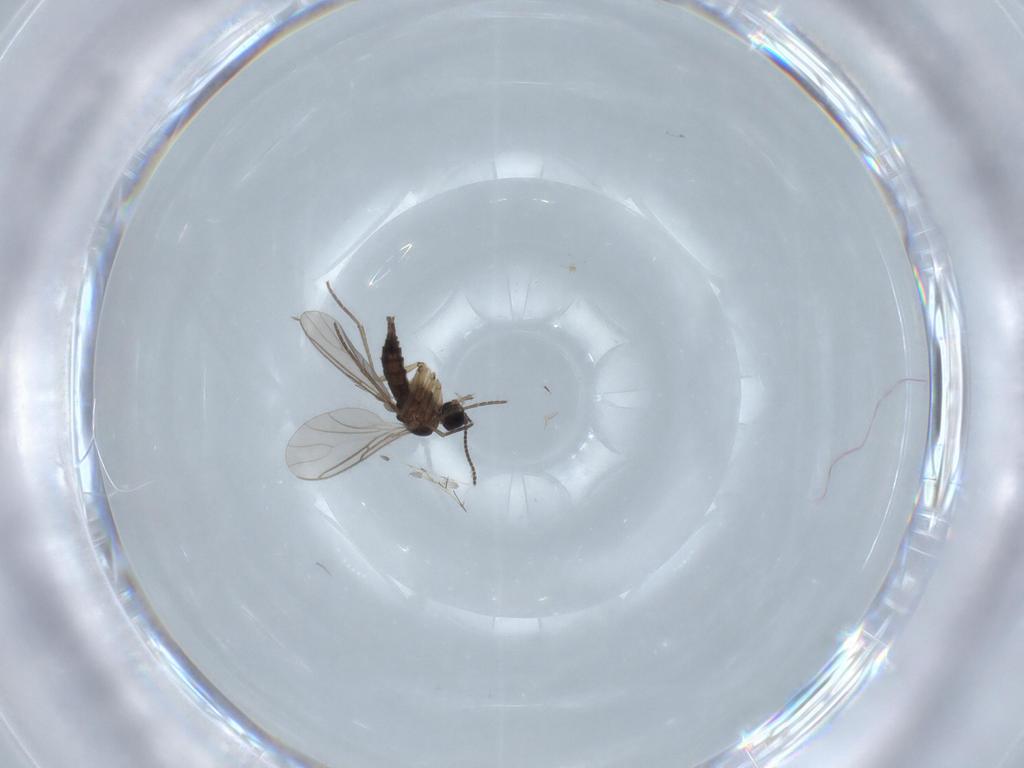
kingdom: Animalia
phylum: Arthropoda
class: Insecta
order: Diptera
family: Sciaridae
